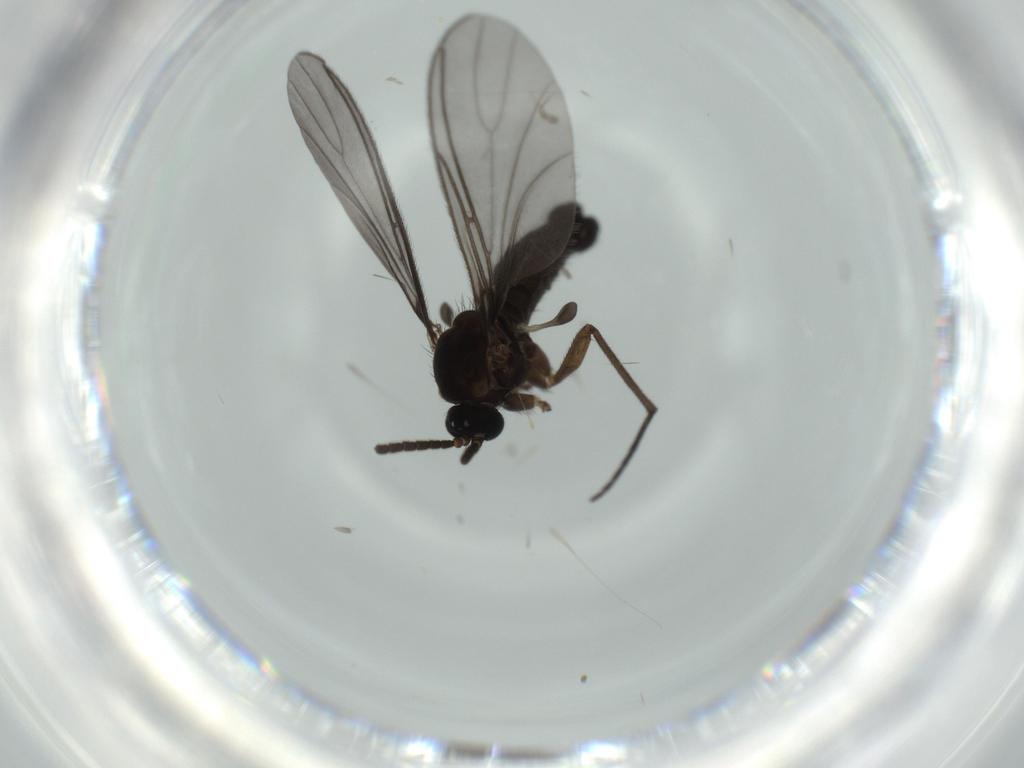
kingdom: Animalia
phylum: Arthropoda
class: Insecta
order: Diptera
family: Sciaridae
